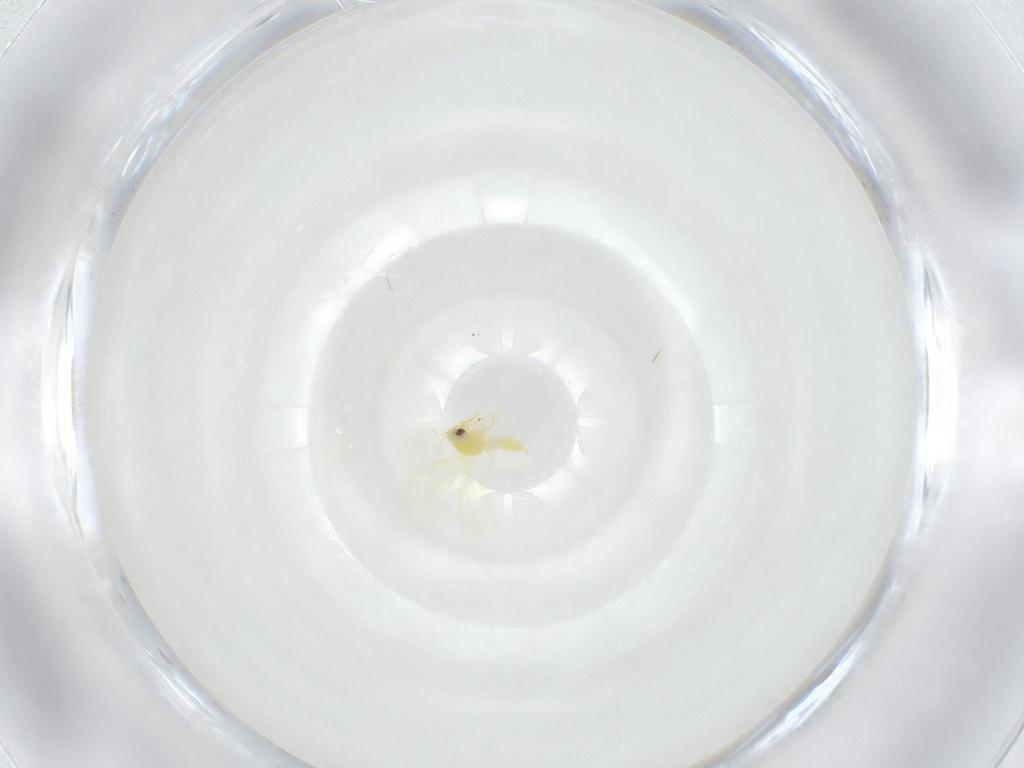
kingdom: Animalia
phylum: Arthropoda
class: Insecta
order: Hemiptera
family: Aleyrodidae
